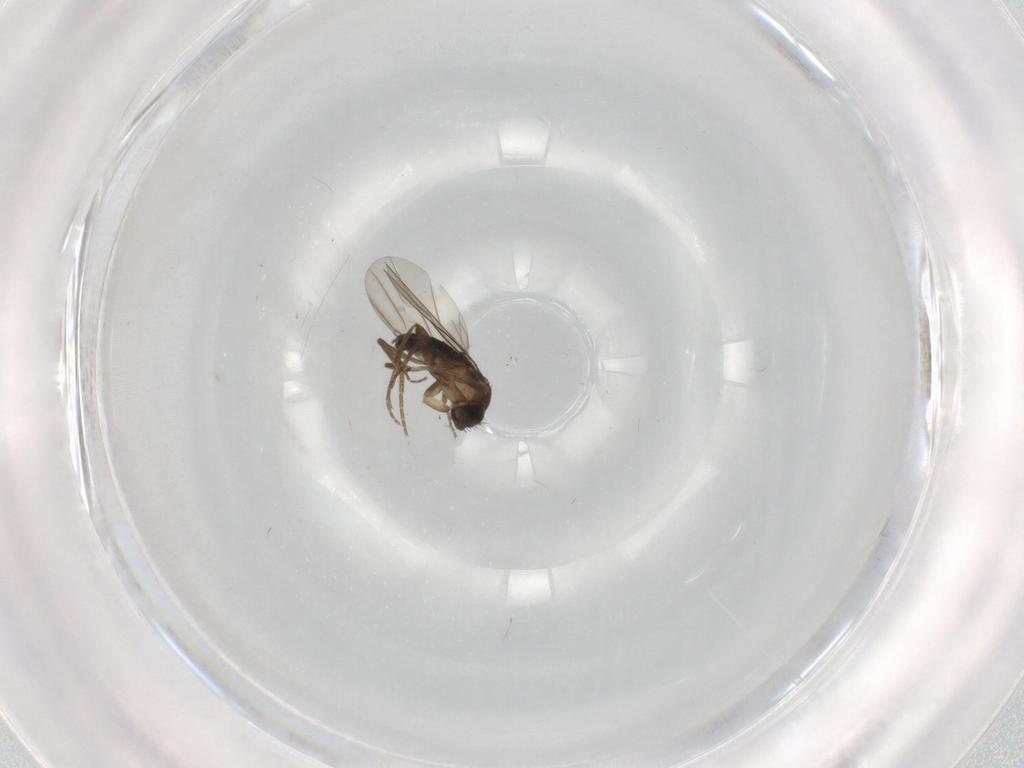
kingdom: Animalia
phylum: Arthropoda
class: Insecta
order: Diptera
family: Phoridae
